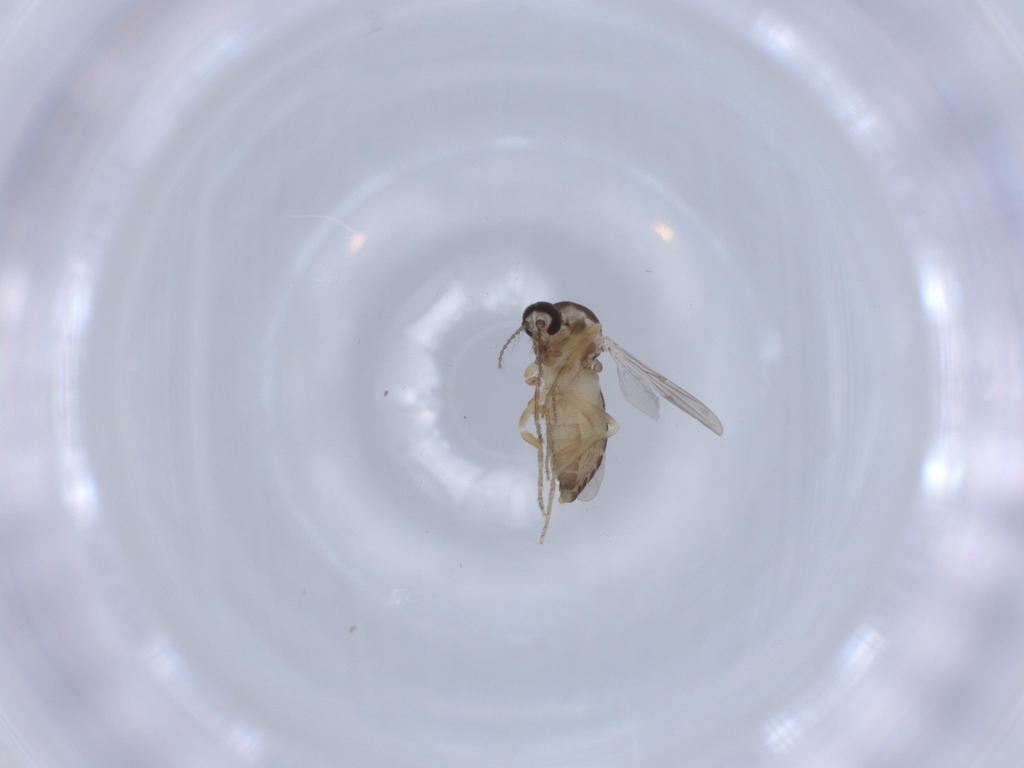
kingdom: Animalia
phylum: Arthropoda
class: Insecta
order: Diptera
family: Ceratopogonidae
